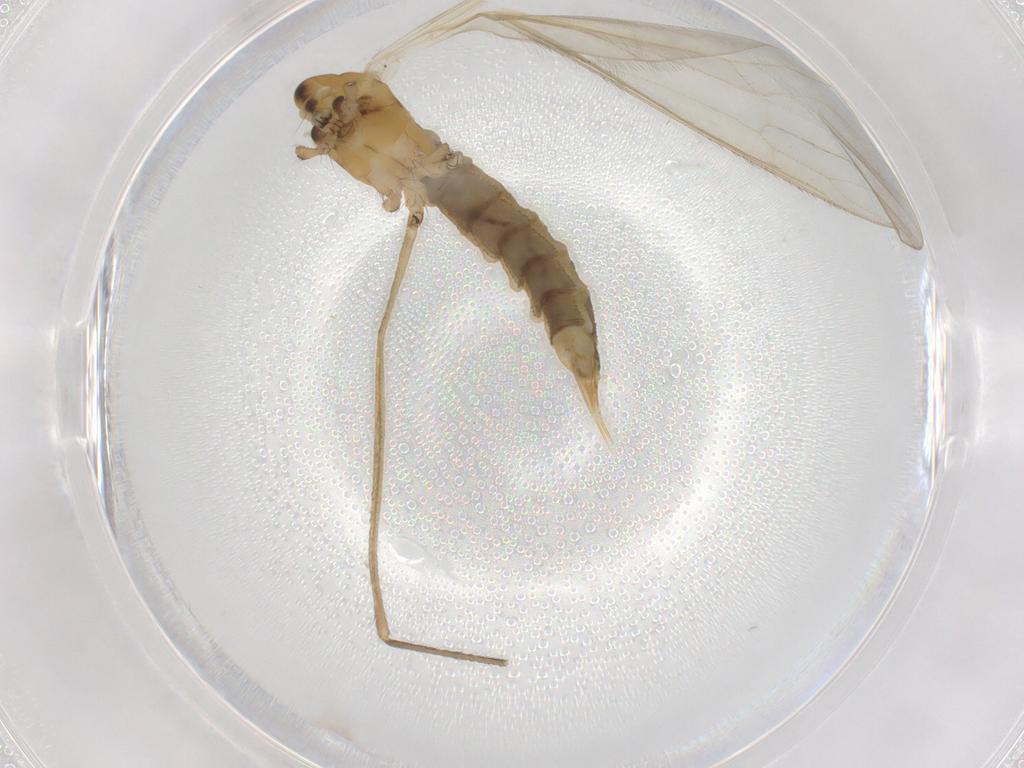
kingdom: Animalia
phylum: Arthropoda
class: Insecta
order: Diptera
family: Limoniidae
